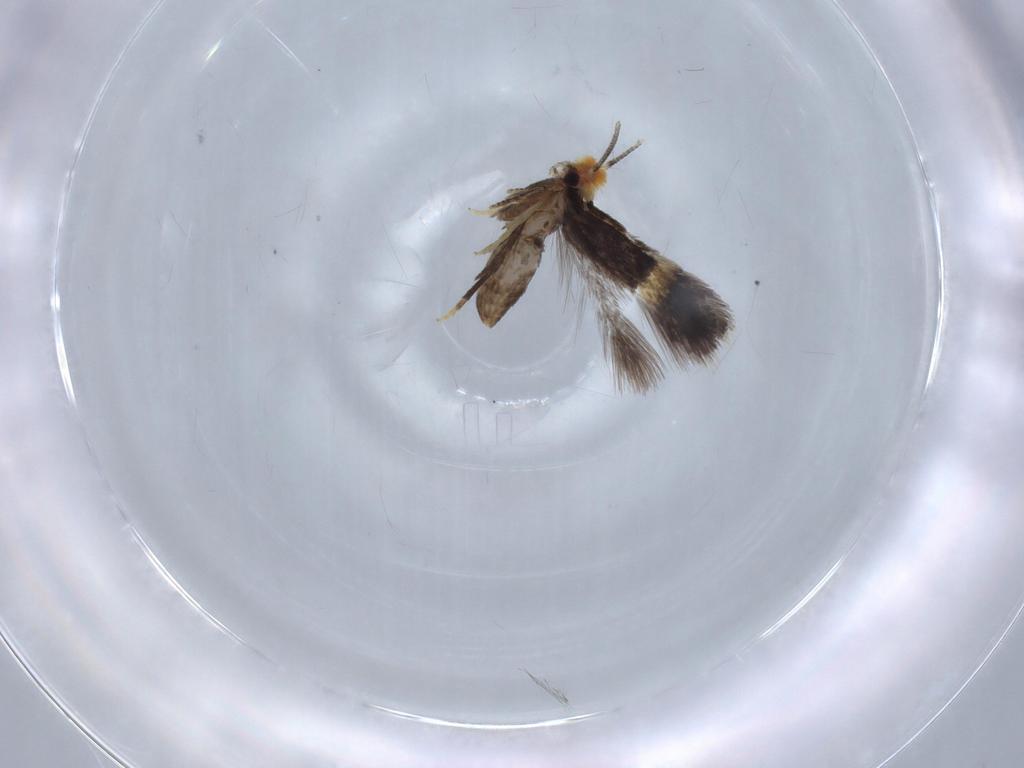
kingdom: Animalia
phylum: Arthropoda
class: Insecta
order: Lepidoptera
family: Nepticulidae
